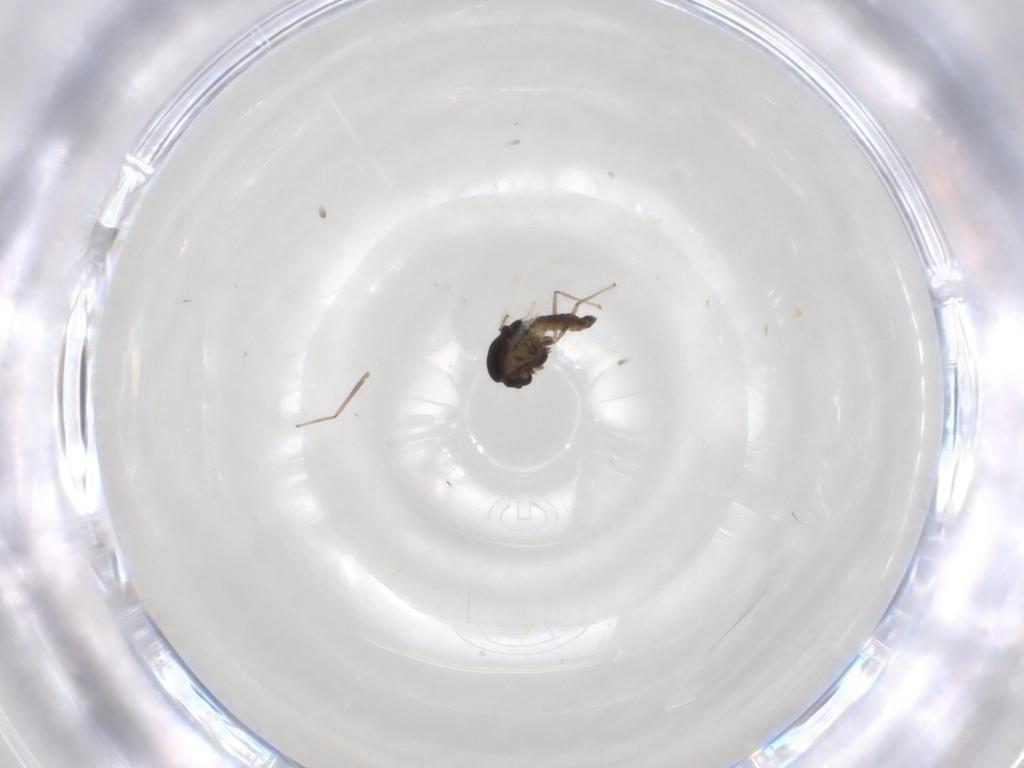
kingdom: Animalia
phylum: Arthropoda
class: Insecta
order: Diptera
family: Chironomidae
